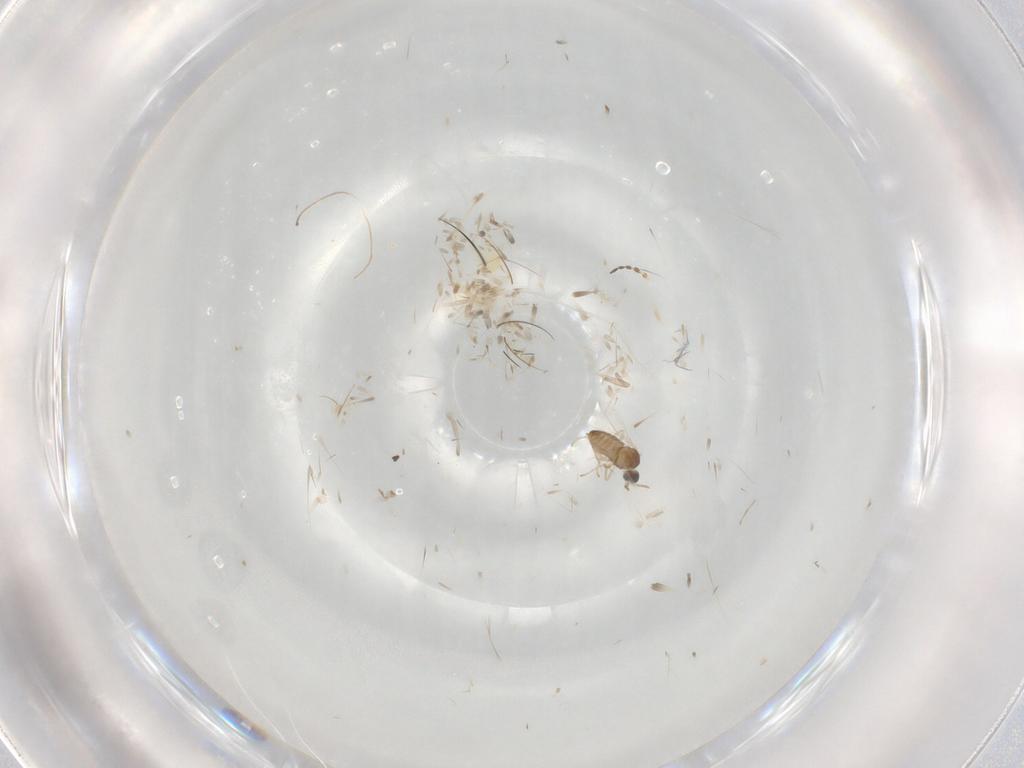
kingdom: Animalia
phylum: Arthropoda
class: Insecta
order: Diptera
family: Cecidomyiidae
